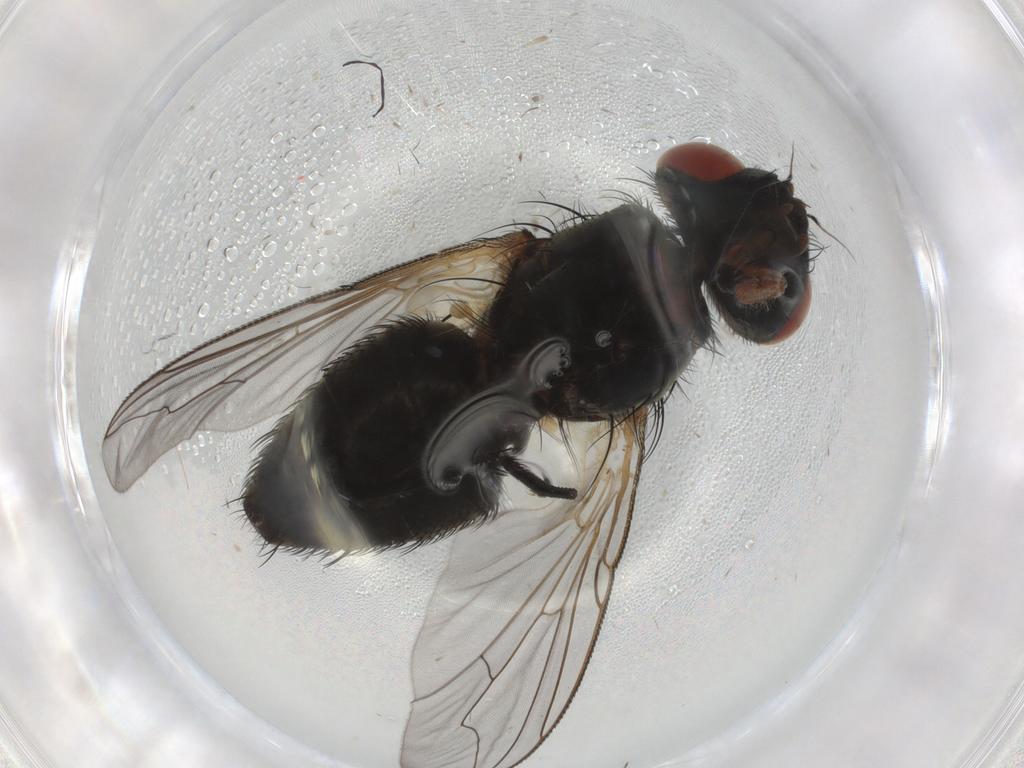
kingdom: Animalia
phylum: Arthropoda
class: Insecta
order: Diptera
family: Sarcophagidae
